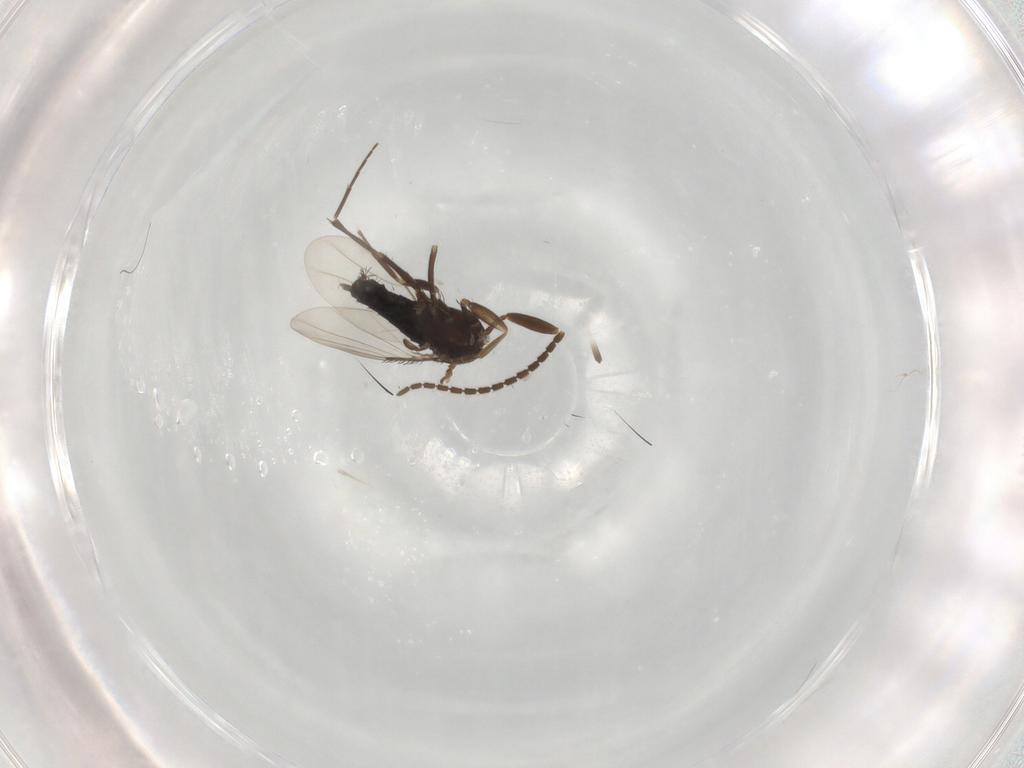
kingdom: Animalia
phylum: Arthropoda
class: Insecta
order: Diptera
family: Phoridae
